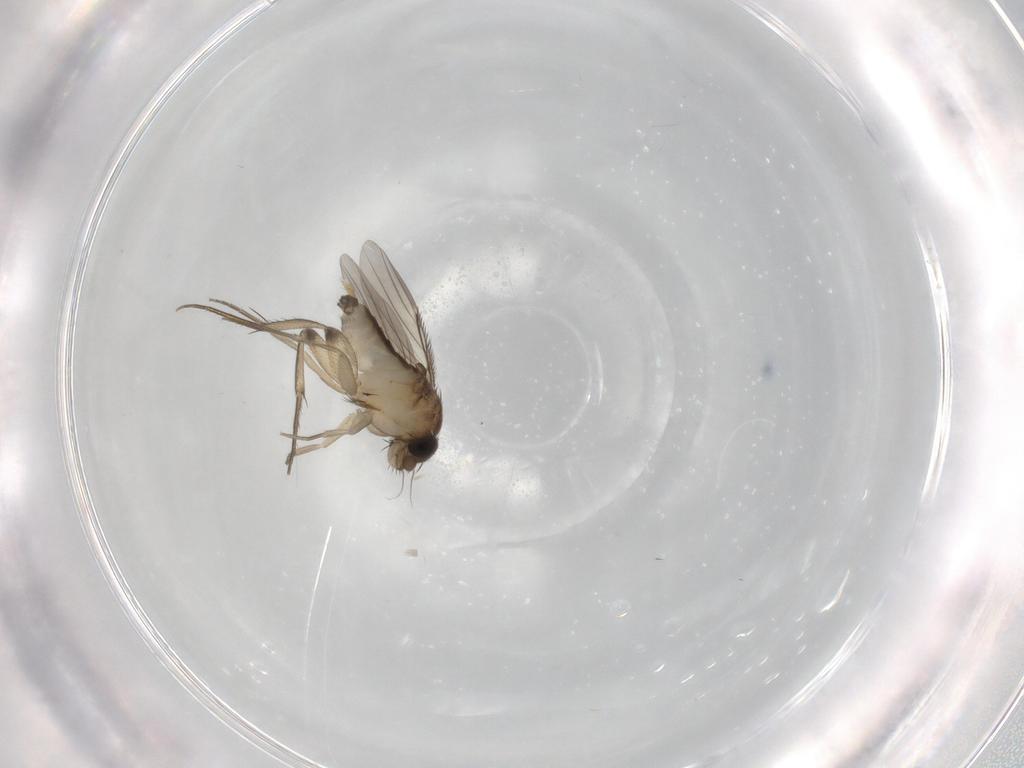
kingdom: Animalia
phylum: Arthropoda
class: Insecta
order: Diptera
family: Phoridae
